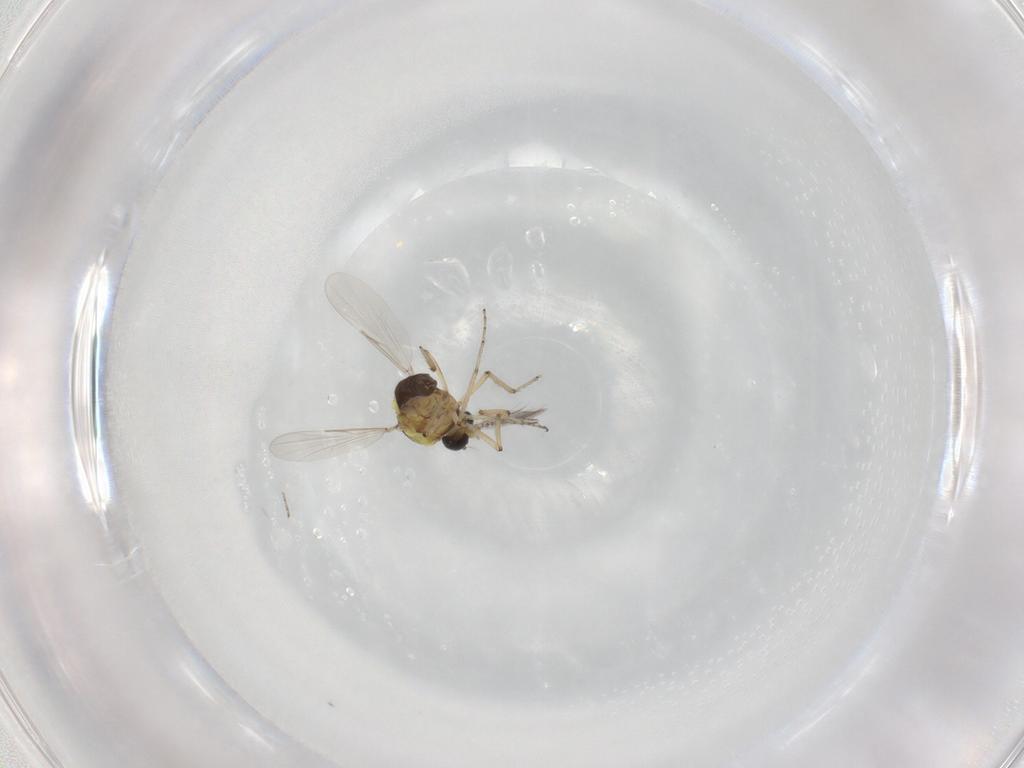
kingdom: Animalia
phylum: Arthropoda
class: Insecta
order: Diptera
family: Ceratopogonidae
